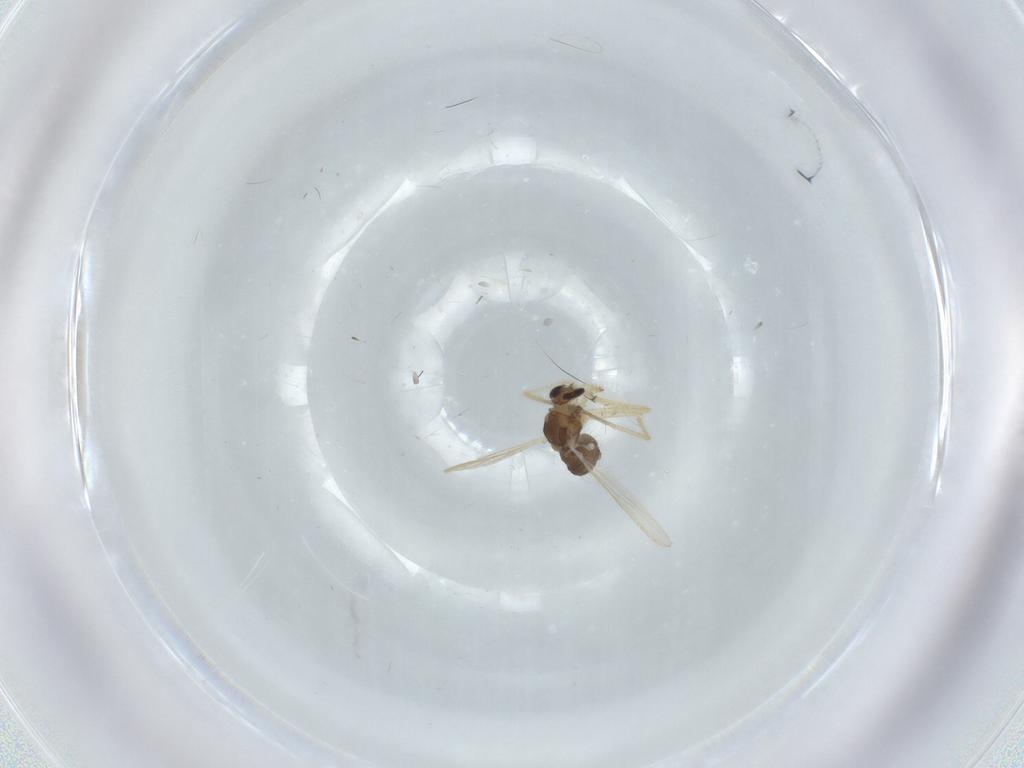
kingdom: Animalia
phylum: Arthropoda
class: Insecta
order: Diptera
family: Chironomidae
